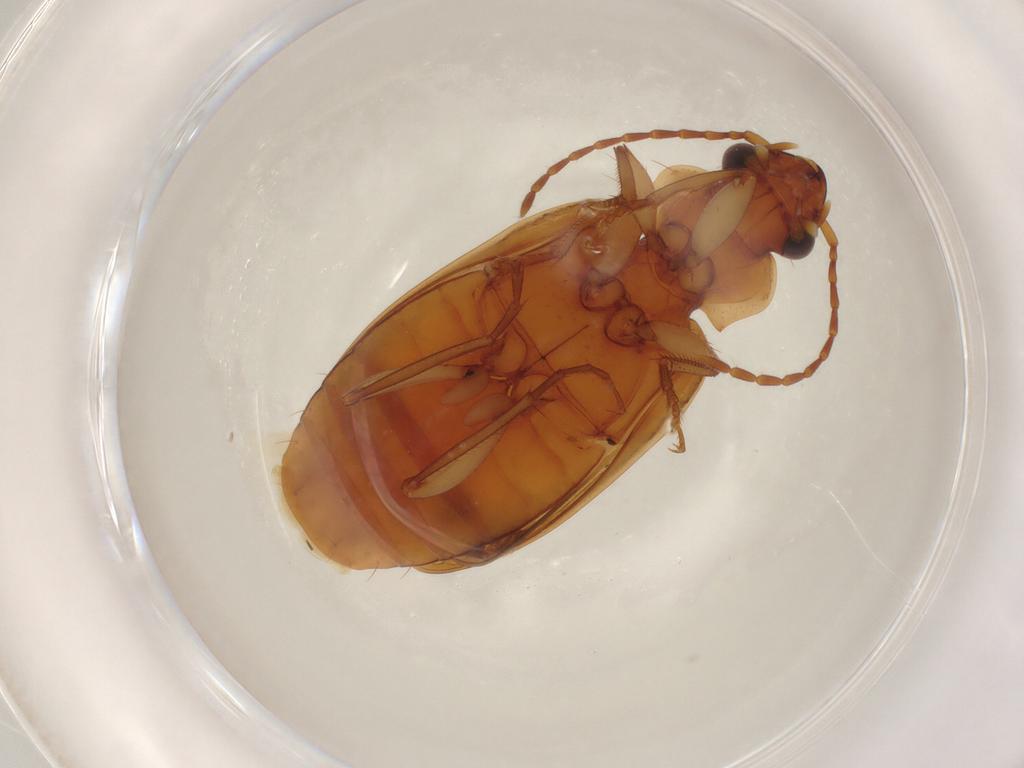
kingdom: Animalia
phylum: Arthropoda
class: Insecta
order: Coleoptera
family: Carabidae
